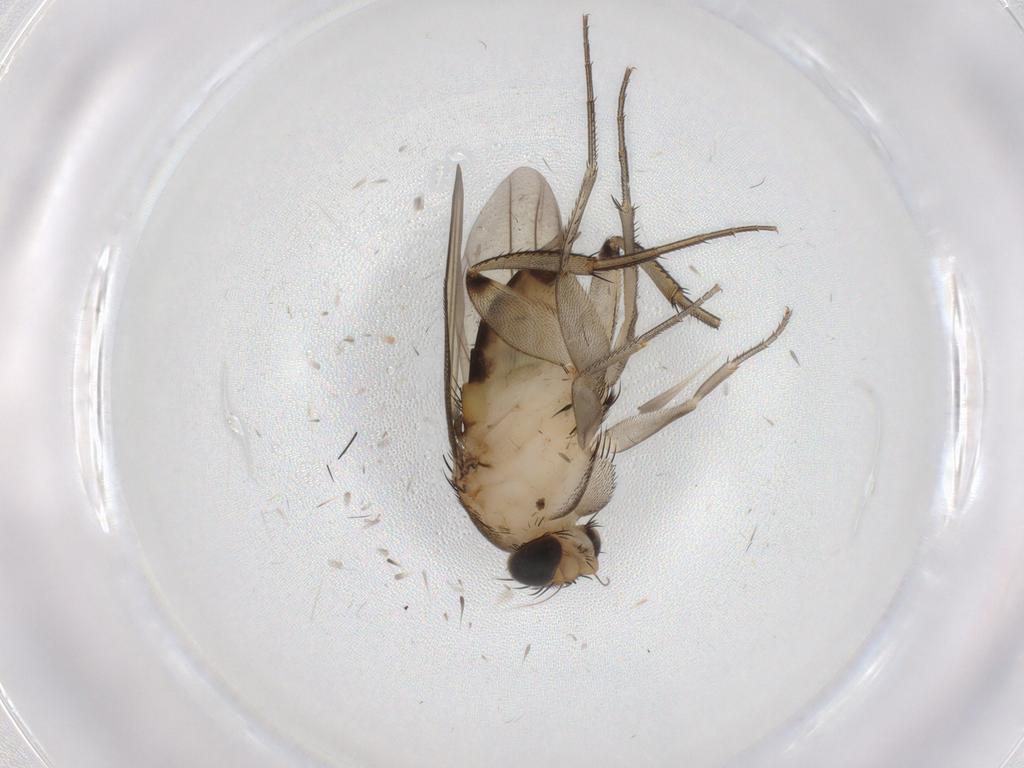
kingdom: Animalia
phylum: Arthropoda
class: Insecta
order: Diptera
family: Phoridae
